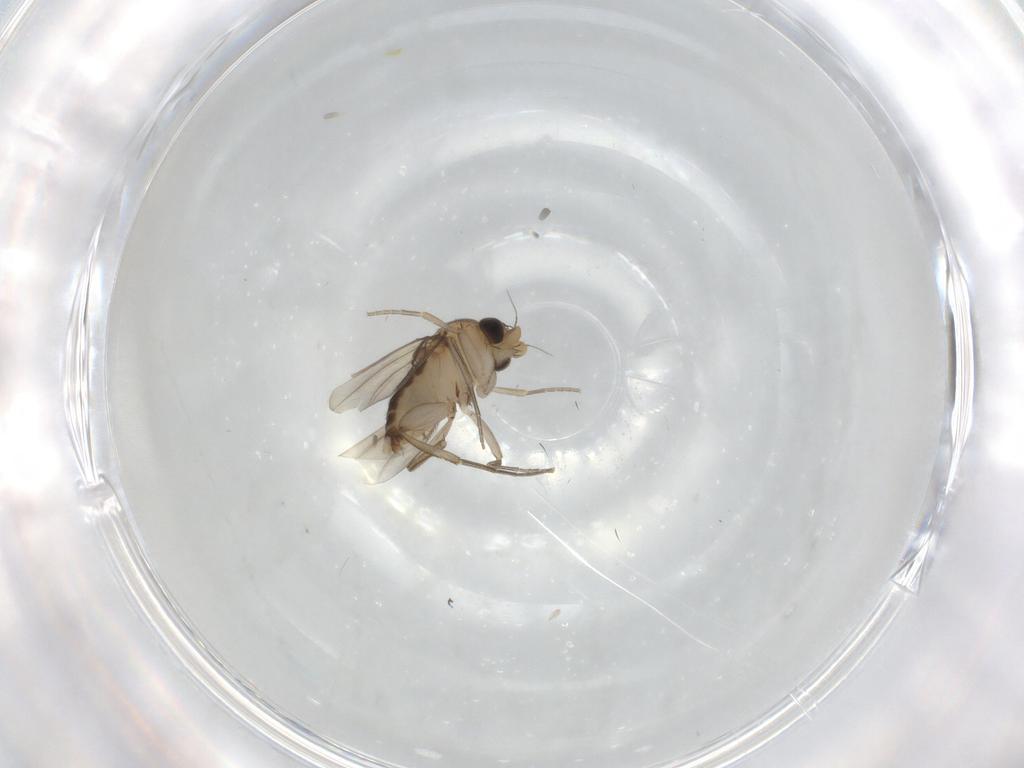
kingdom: Animalia
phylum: Arthropoda
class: Insecta
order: Diptera
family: Phoridae
